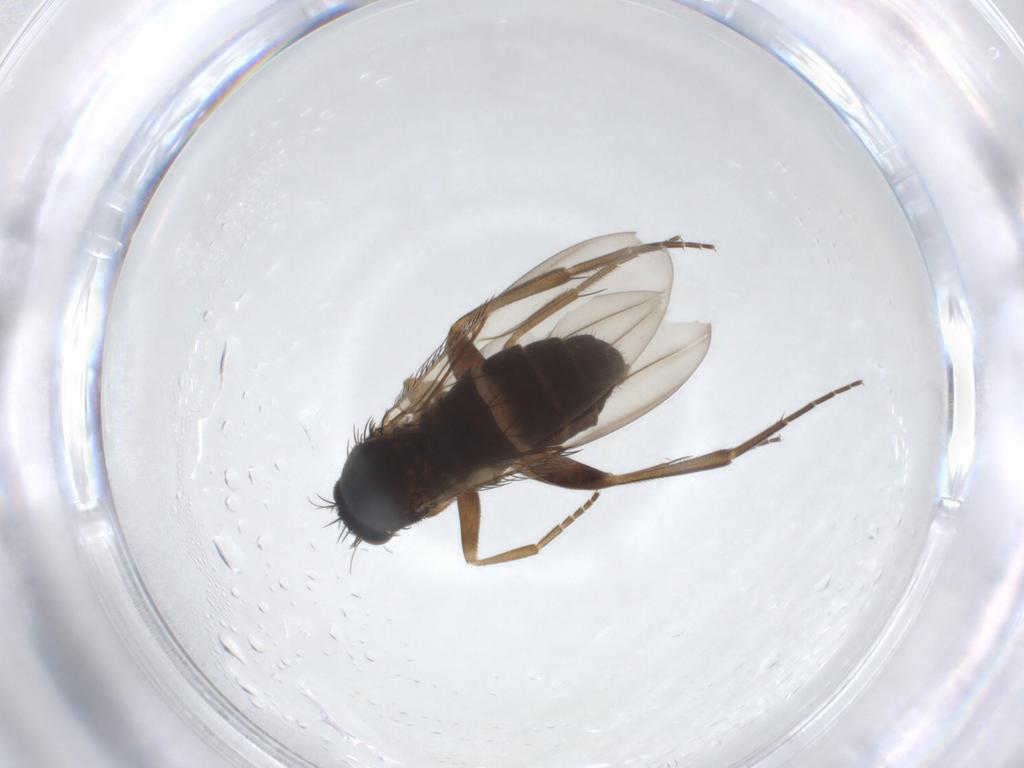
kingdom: Animalia
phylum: Arthropoda
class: Insecta
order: Diptera
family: Phoridae
